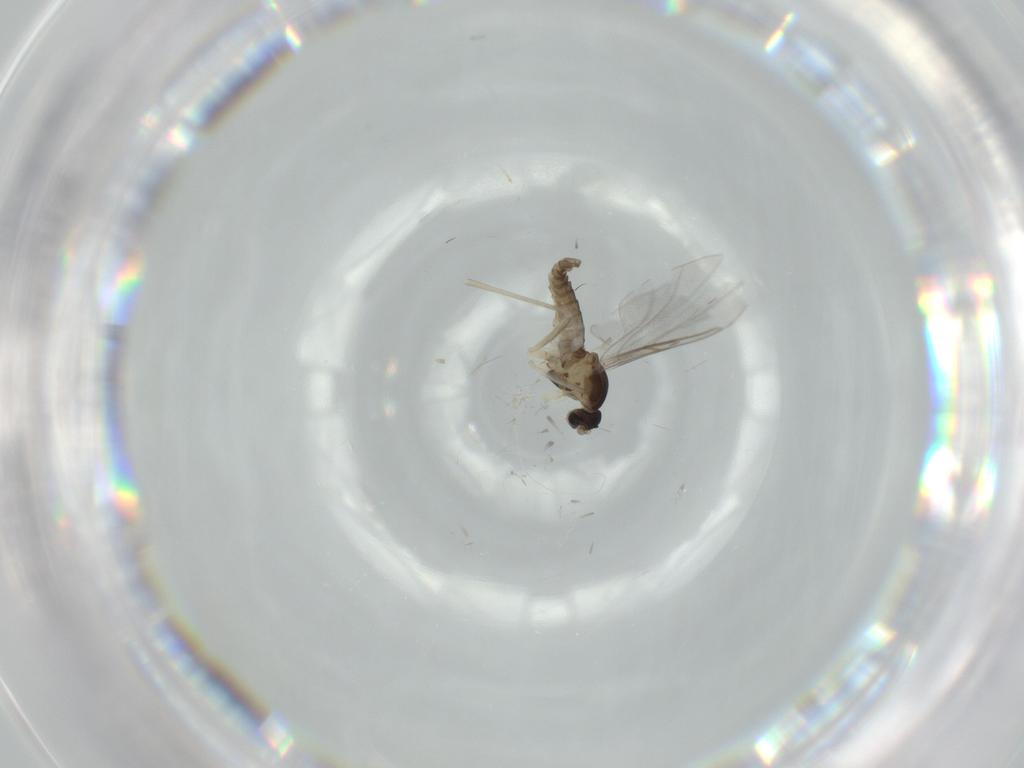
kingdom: Animalia
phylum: Arthropoda
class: Insecta
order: Diptera
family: Cecidomyiidae
